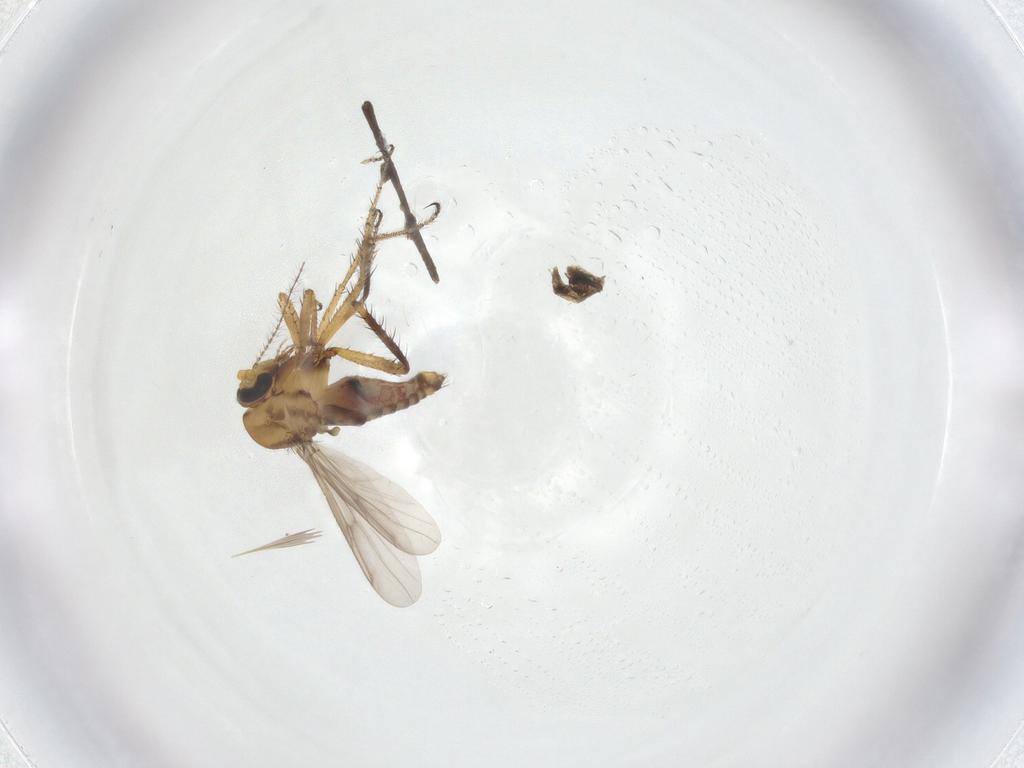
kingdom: Animalia
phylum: Arthropoda
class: Insecta
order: Diptera
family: Ceratopogonidae
